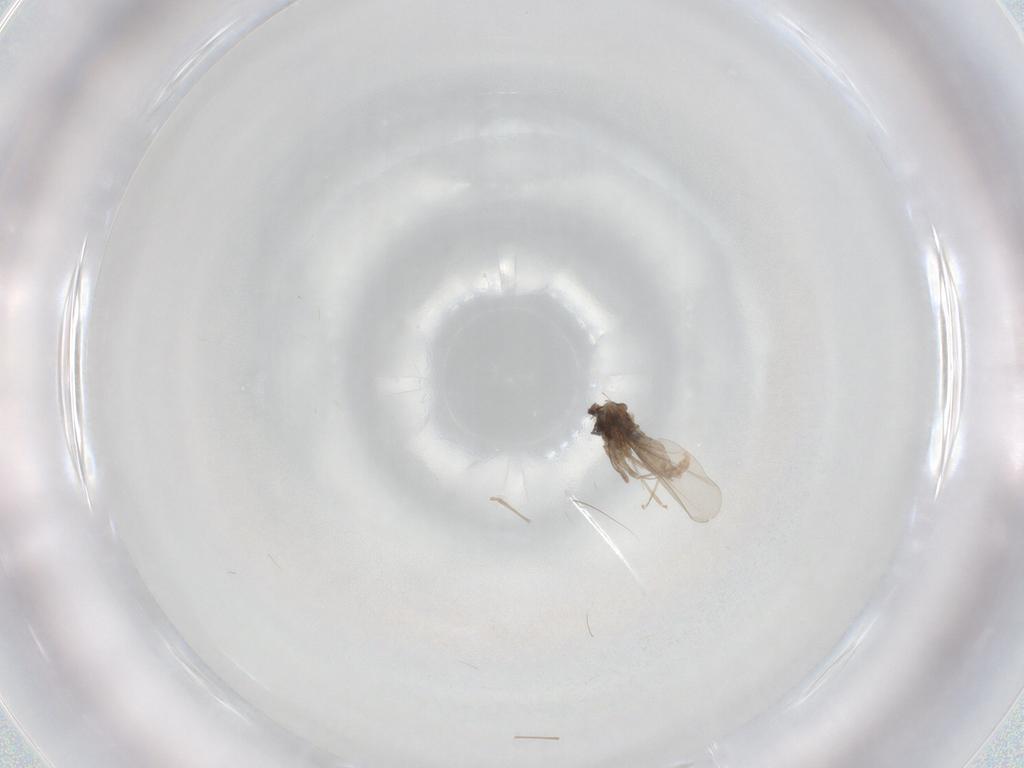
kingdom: Animalia
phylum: Arthropoda
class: Insecta
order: Diptera
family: Cecidomyiidae
